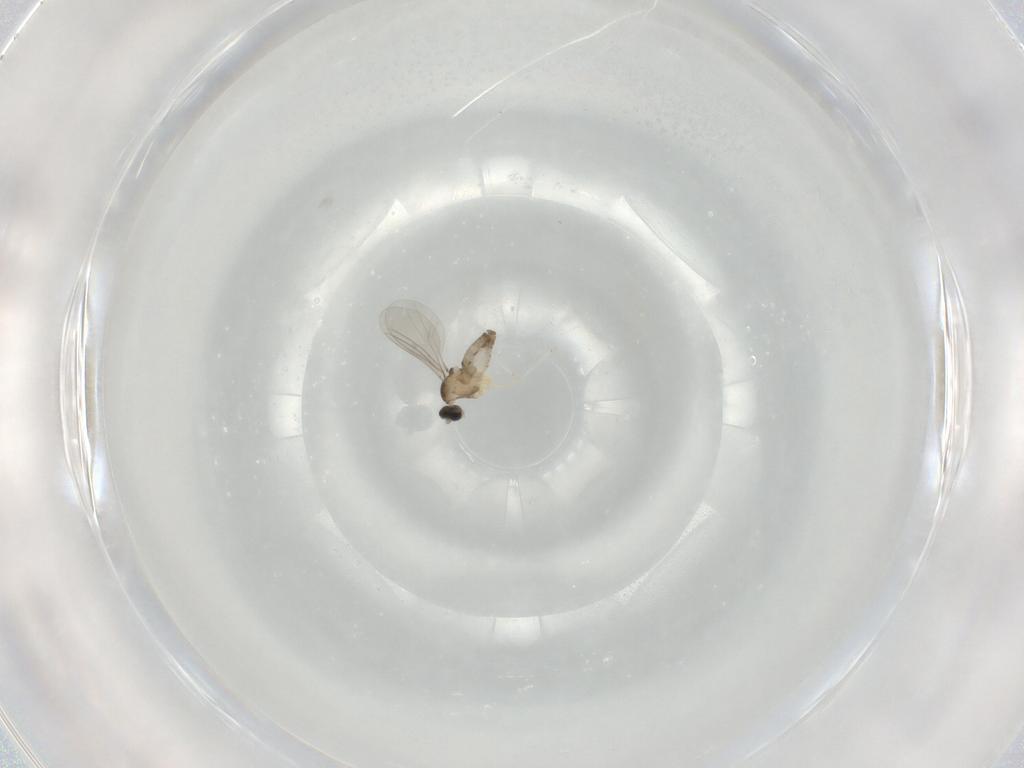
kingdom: Animalia
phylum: Arthropoda
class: Insecta
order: Diptera
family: Cecidomyiidae
